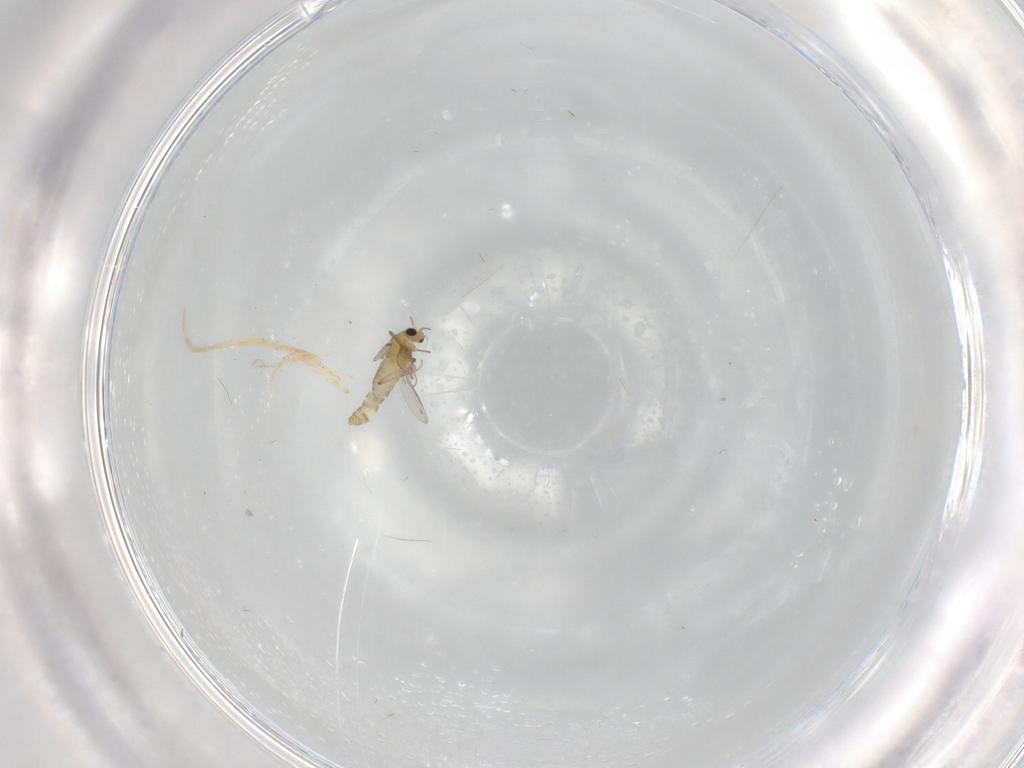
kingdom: Animalia
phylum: Arthropoda
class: Insecta
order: Diptera
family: Chironomidae
